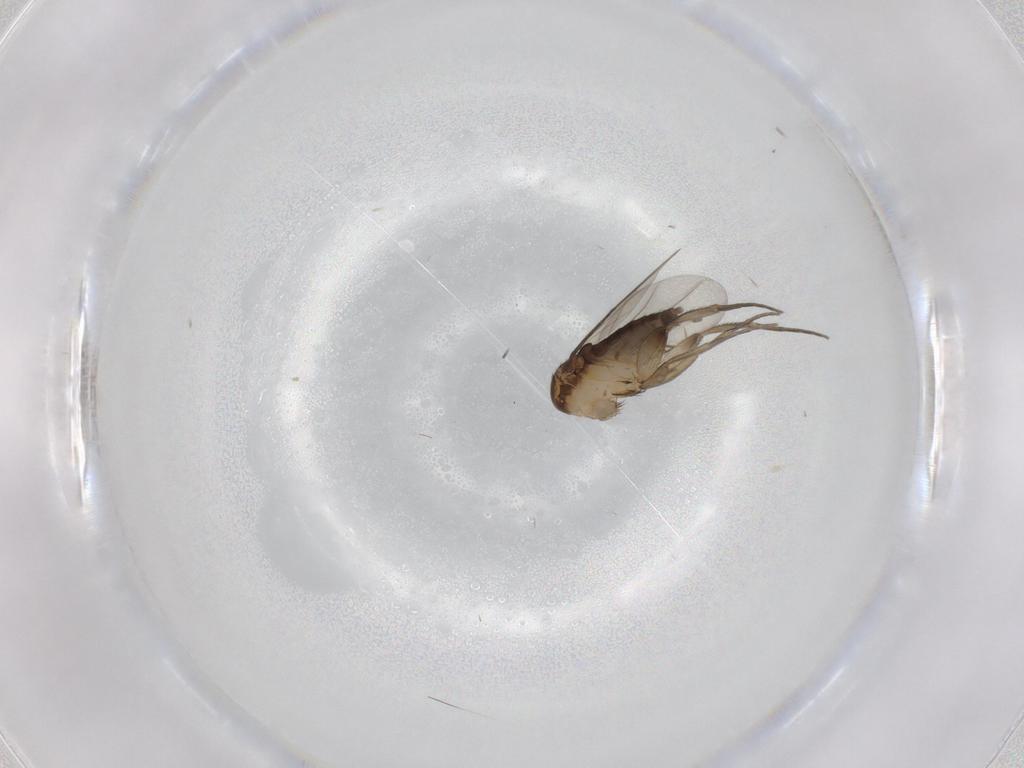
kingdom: Animalia
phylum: Arthropoda
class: Insecta
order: Diptera
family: Phoridae
